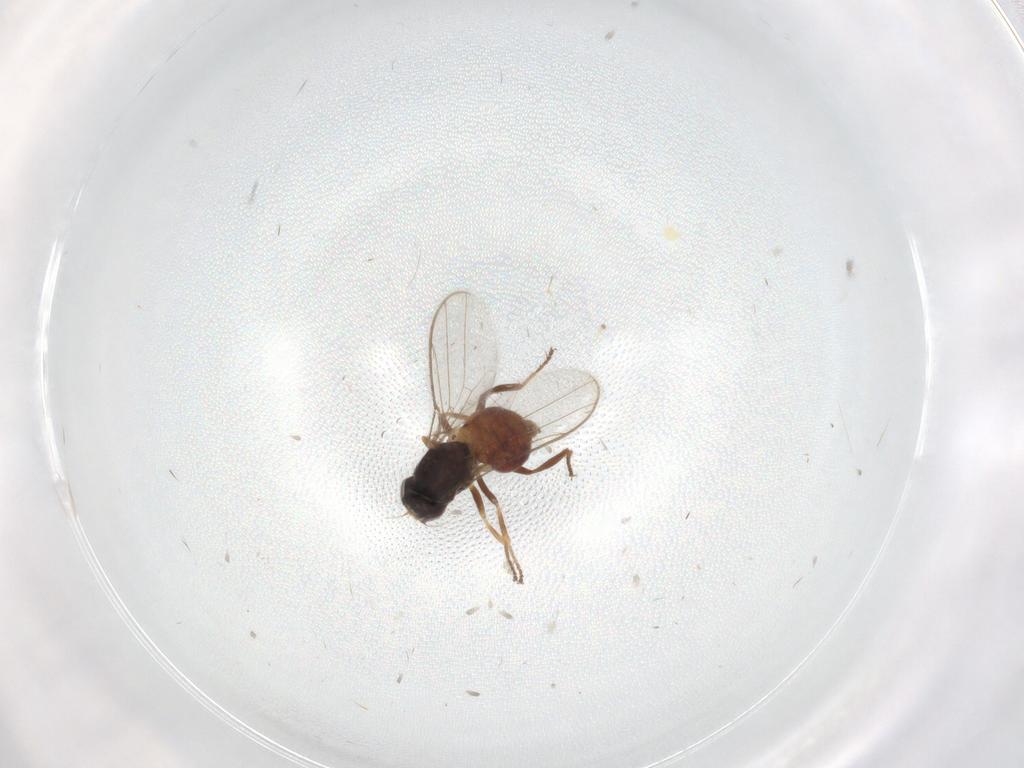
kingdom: Animalia
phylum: Arthropoda
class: Insecta
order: Diptera
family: Chloropidae
